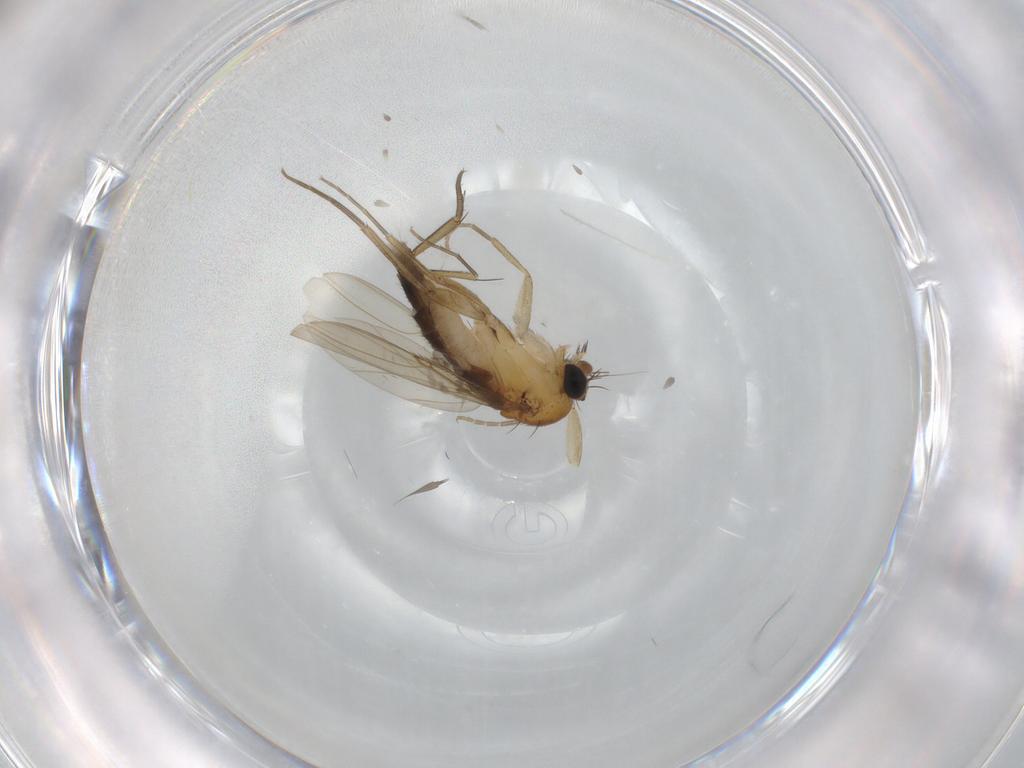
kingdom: Animalia
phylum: Arthropoda
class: Insecta
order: Diptera
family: Phoridae
